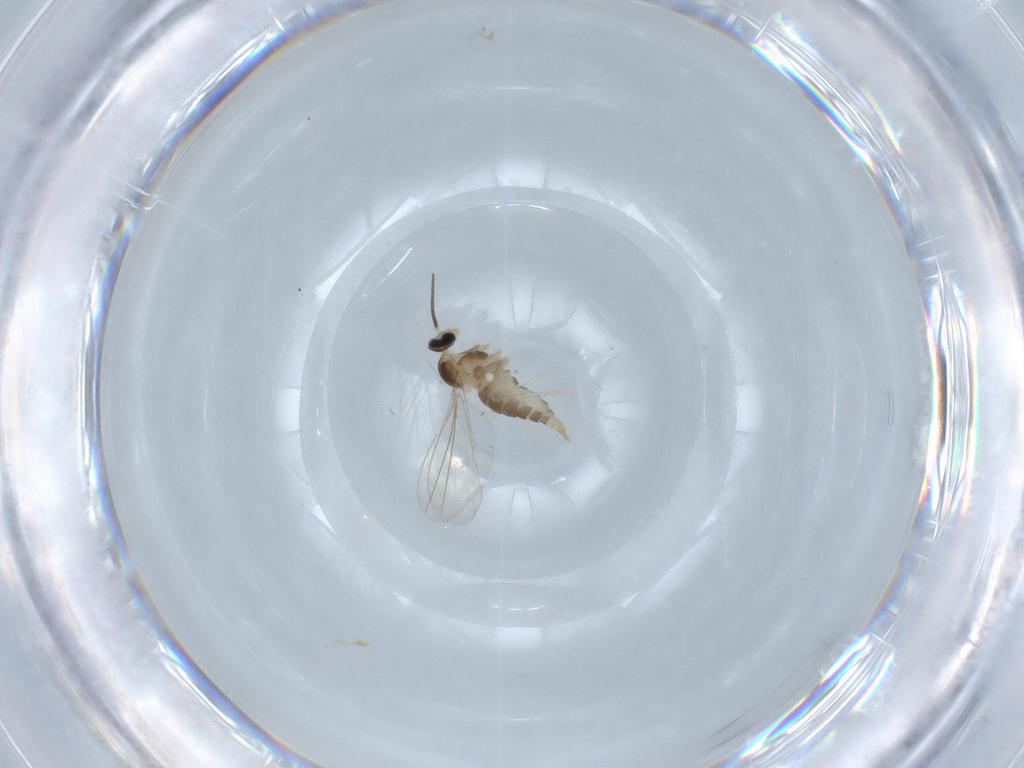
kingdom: Animalia
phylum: Arthropoda
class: Insecta
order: Diptera
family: Cecidomyiidae
